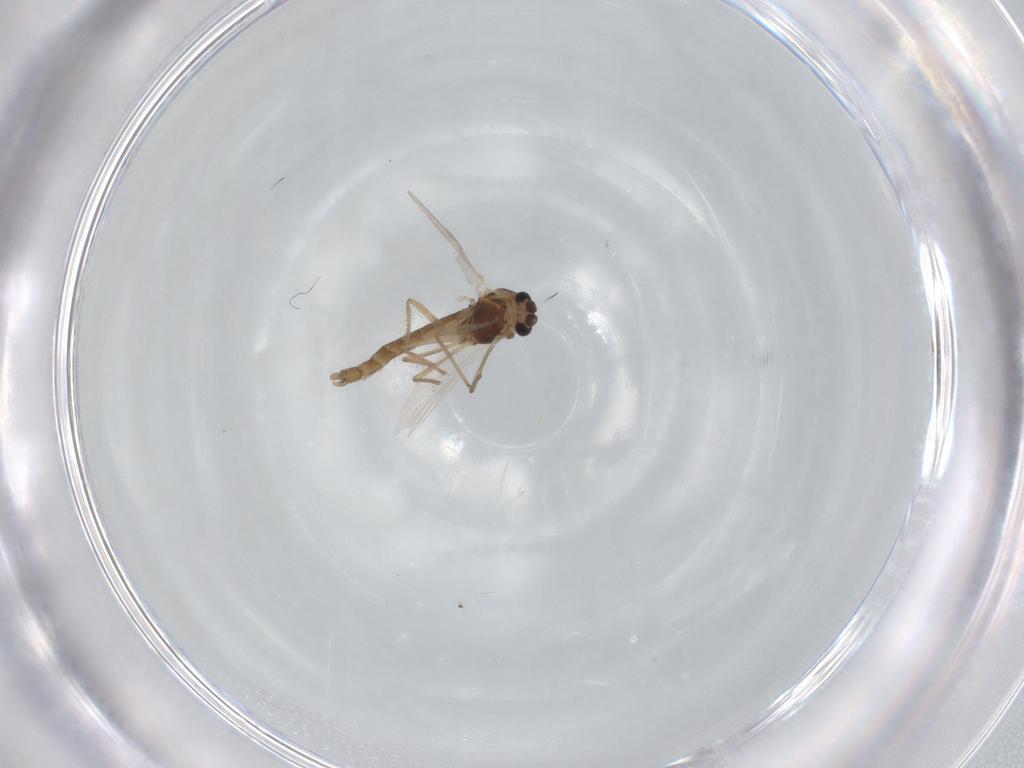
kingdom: Animalia
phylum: Arthropoda
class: Insecta
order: Diptera
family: Chironomidae
